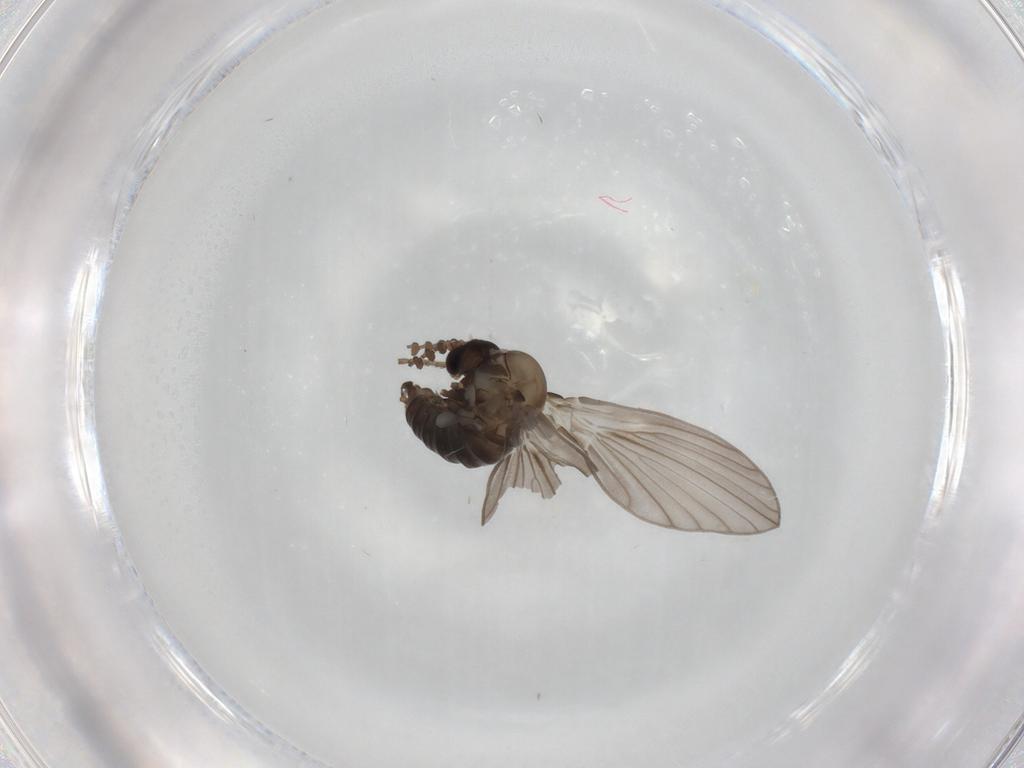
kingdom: Animalia
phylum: Arthropoda
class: Insecta
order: Diptera
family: Psychodidae
